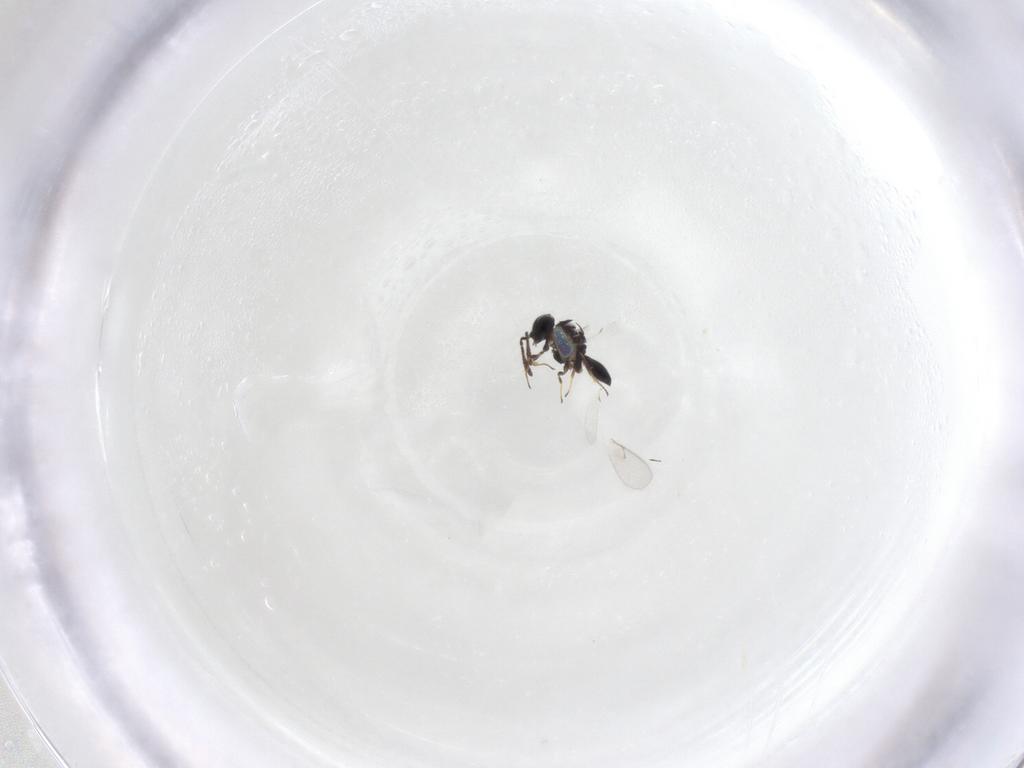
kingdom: Animalia
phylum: Arthropoda
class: Insecta
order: Hymenoptera
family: Scelionidae
